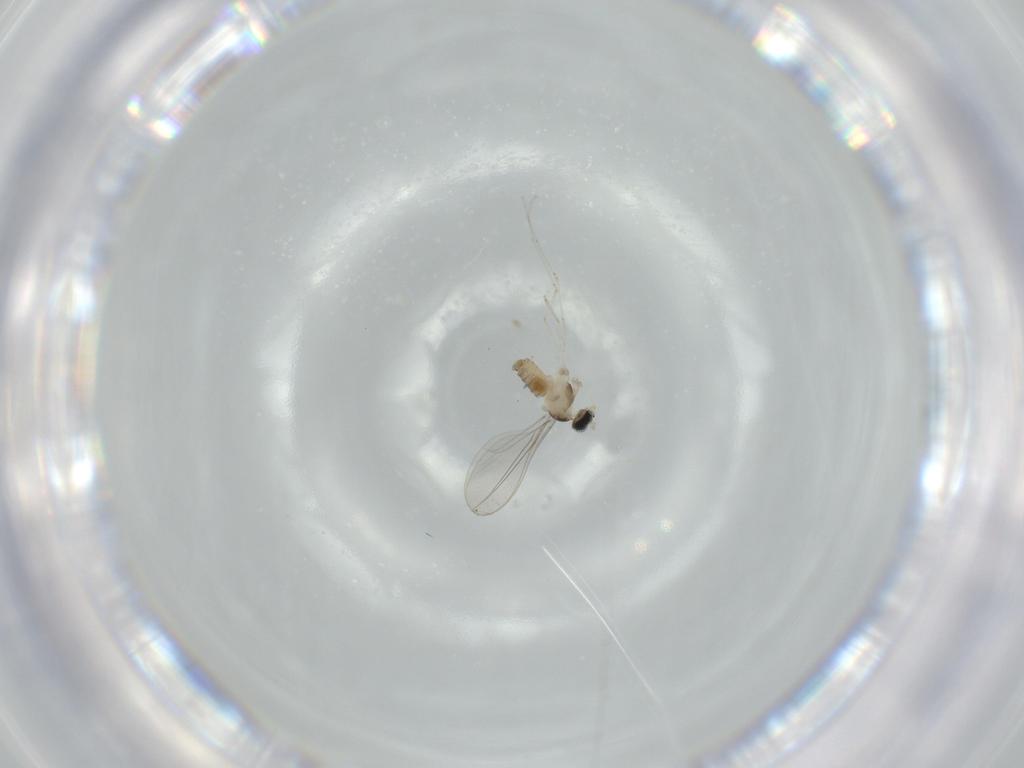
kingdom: Animalia
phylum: Arthropoda
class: Insecta
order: Diptera
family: Cecidomyiidae
